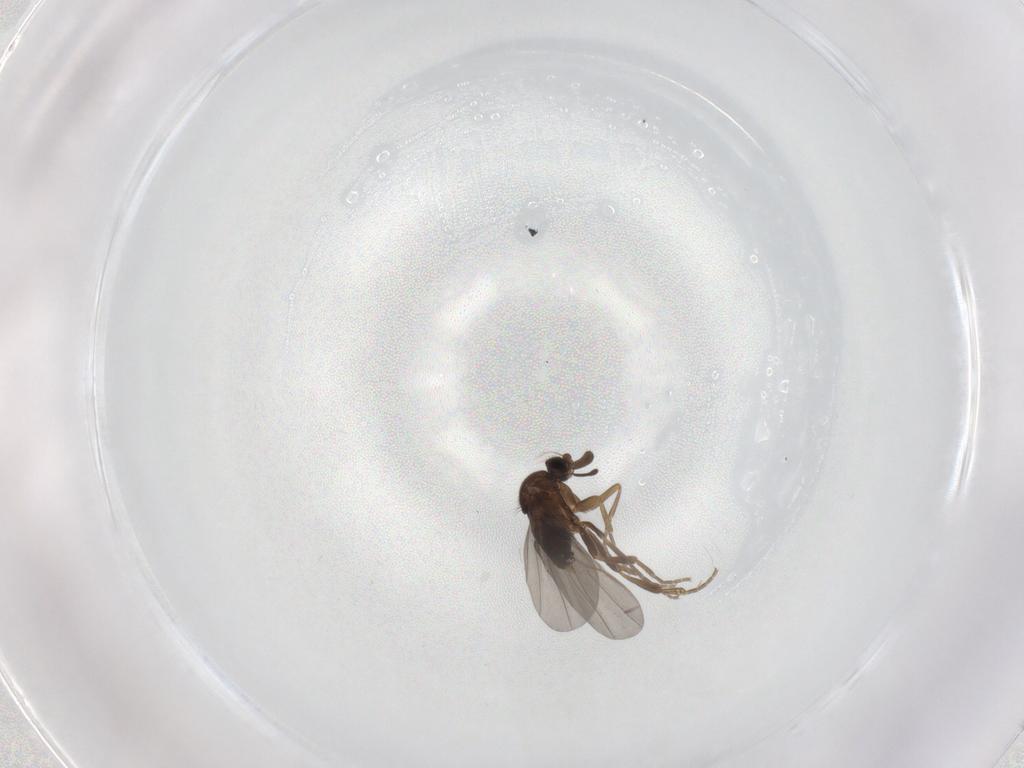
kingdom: Animalia
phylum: Arthropoda
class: Insecta
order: Diptera
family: Phoridae
